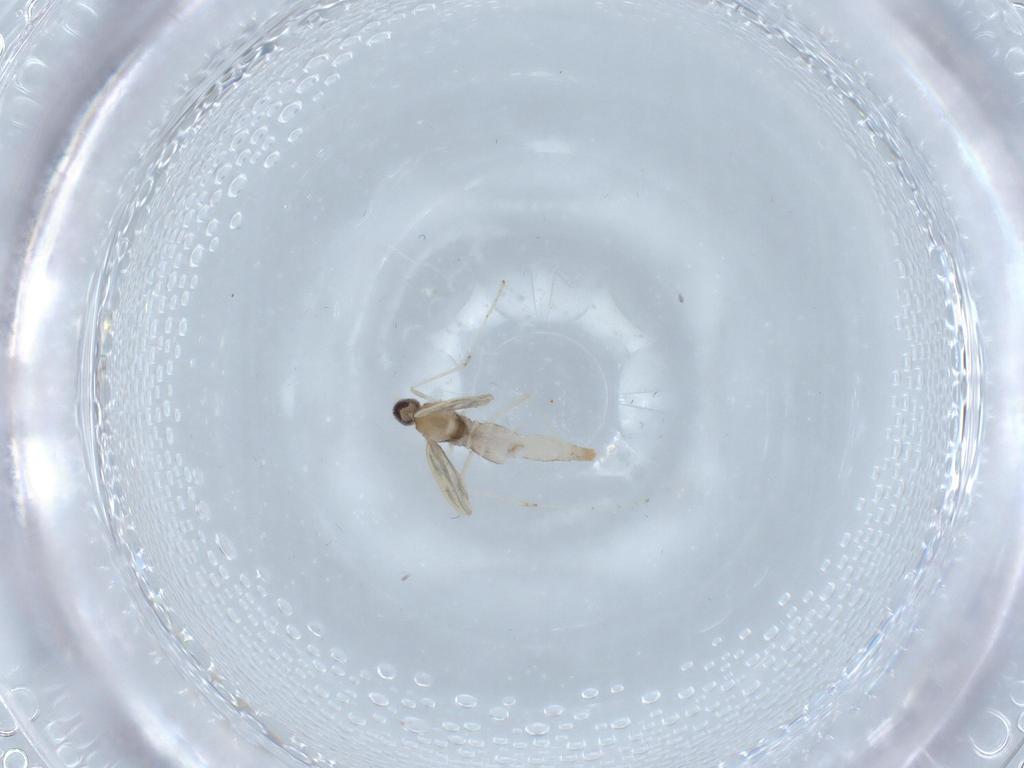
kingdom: Animalia
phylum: Arthropoda
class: Insecta
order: Diptera
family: Cecidomyiidae
